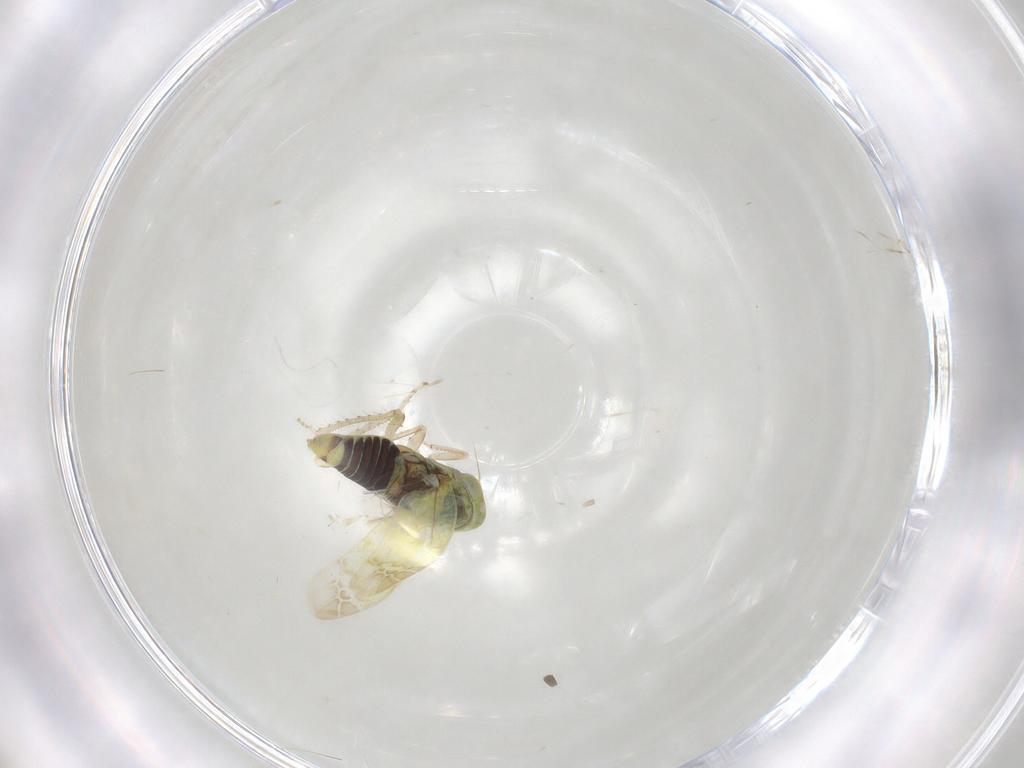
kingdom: Animalia
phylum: Arthropoda
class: Insecta
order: Hemiptera
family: Cicadellidae
